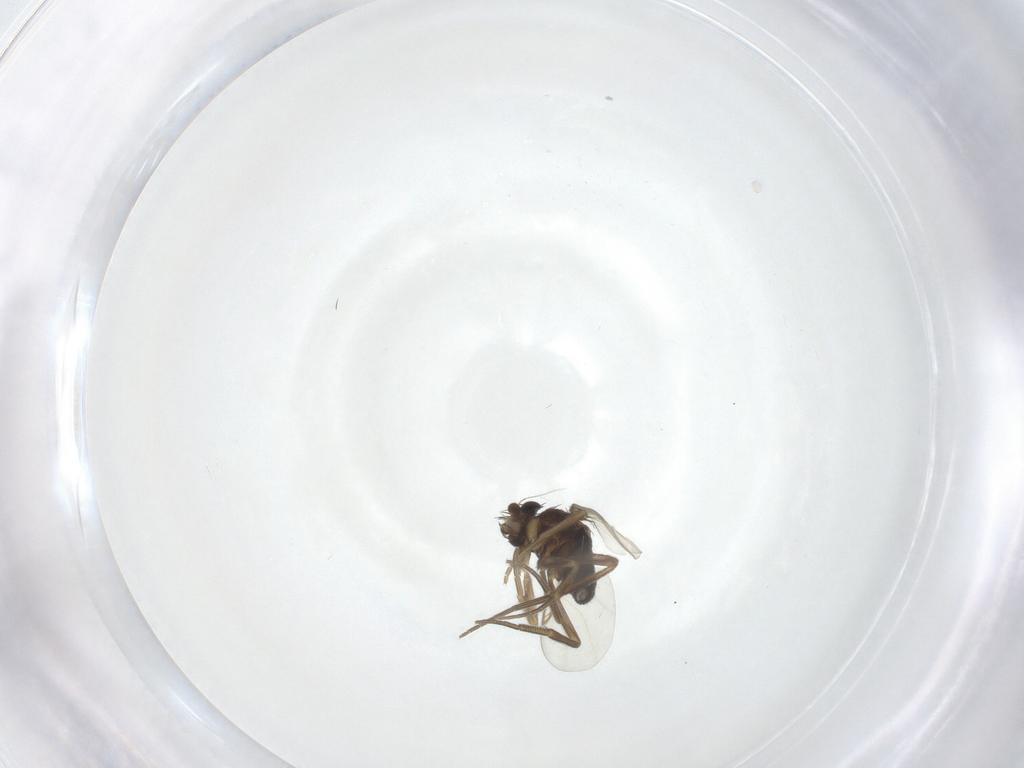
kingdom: Animalia
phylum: Arthropoda
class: Insecta
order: Diptera
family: Phoridae
